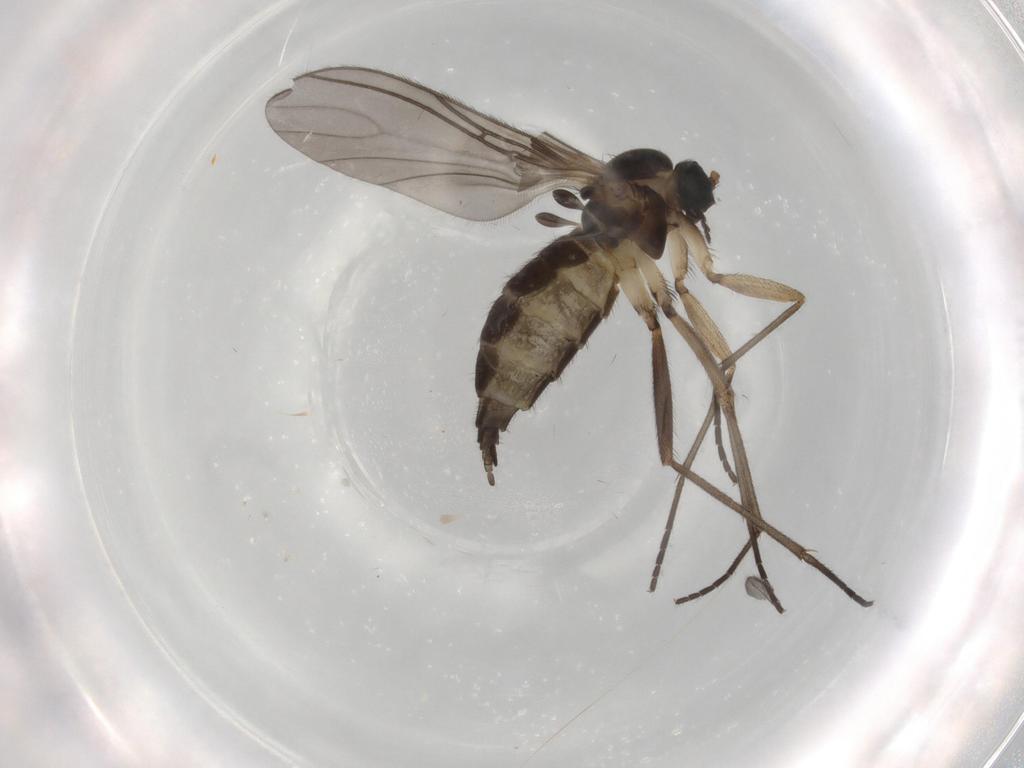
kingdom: Animalia
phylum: Arthropoda
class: Insecta
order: Diptera
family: Sciaridae
